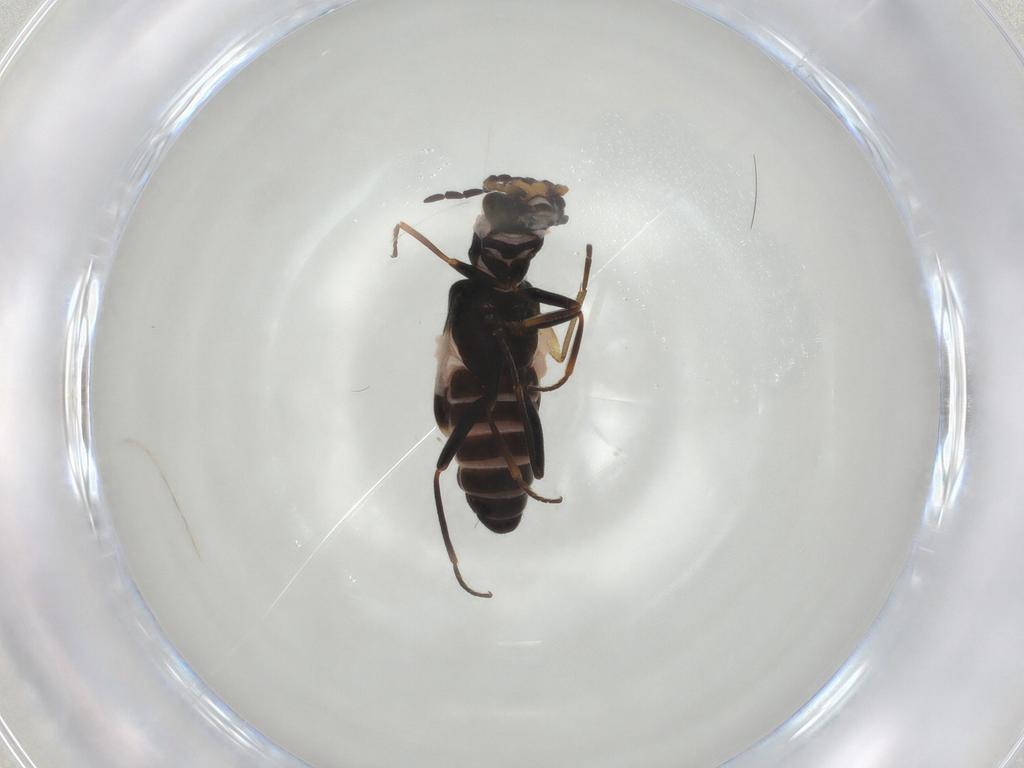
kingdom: Animalia
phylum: Arthropoda
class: Insecta
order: Coleoptera
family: Melyridae
